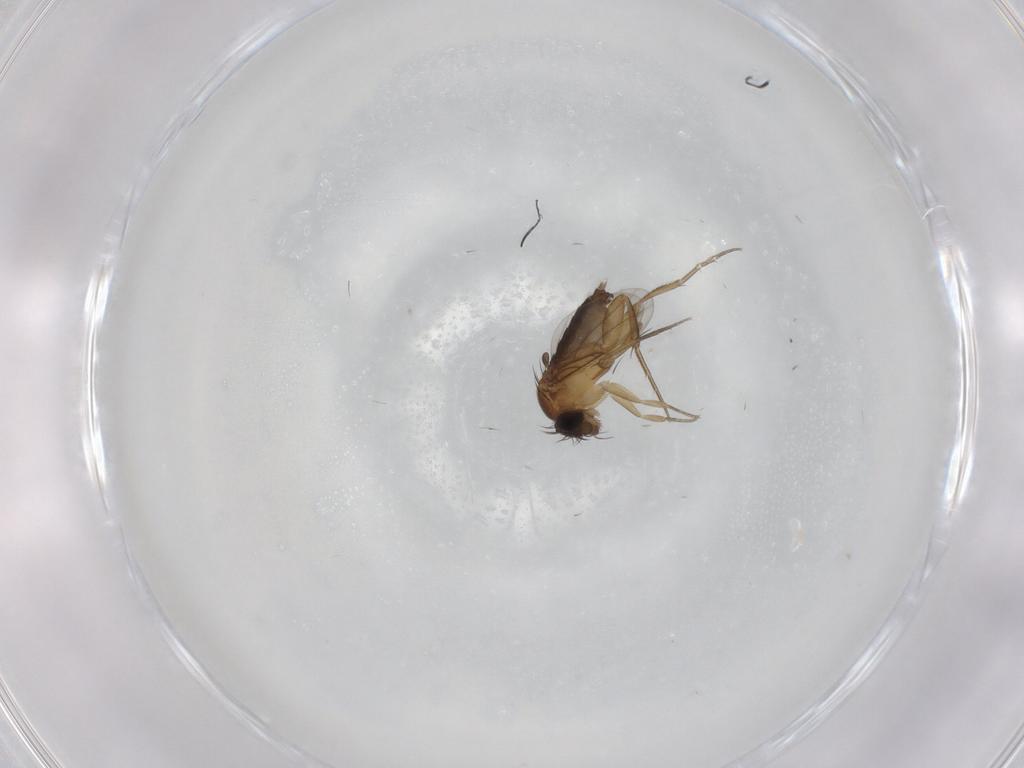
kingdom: Animalia
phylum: Arthropoda
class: Insecta
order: Diptera
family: Phoridae
